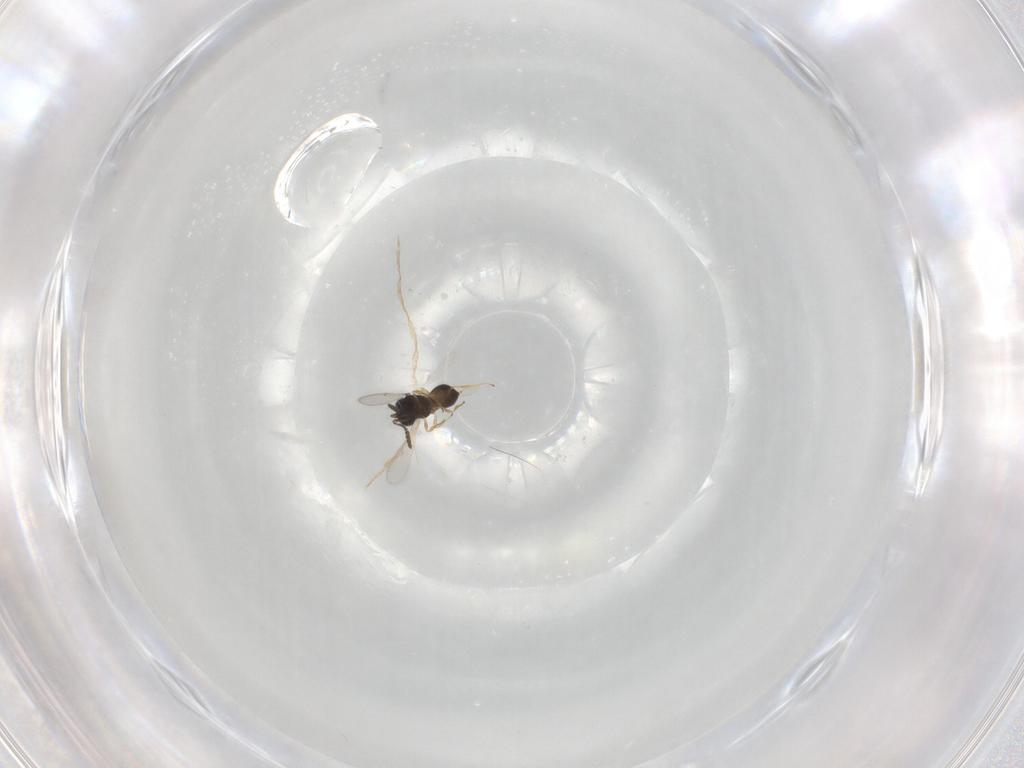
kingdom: Animalia
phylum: Arthropoda
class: Insecta
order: Hymenoptera
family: Scelionidae
